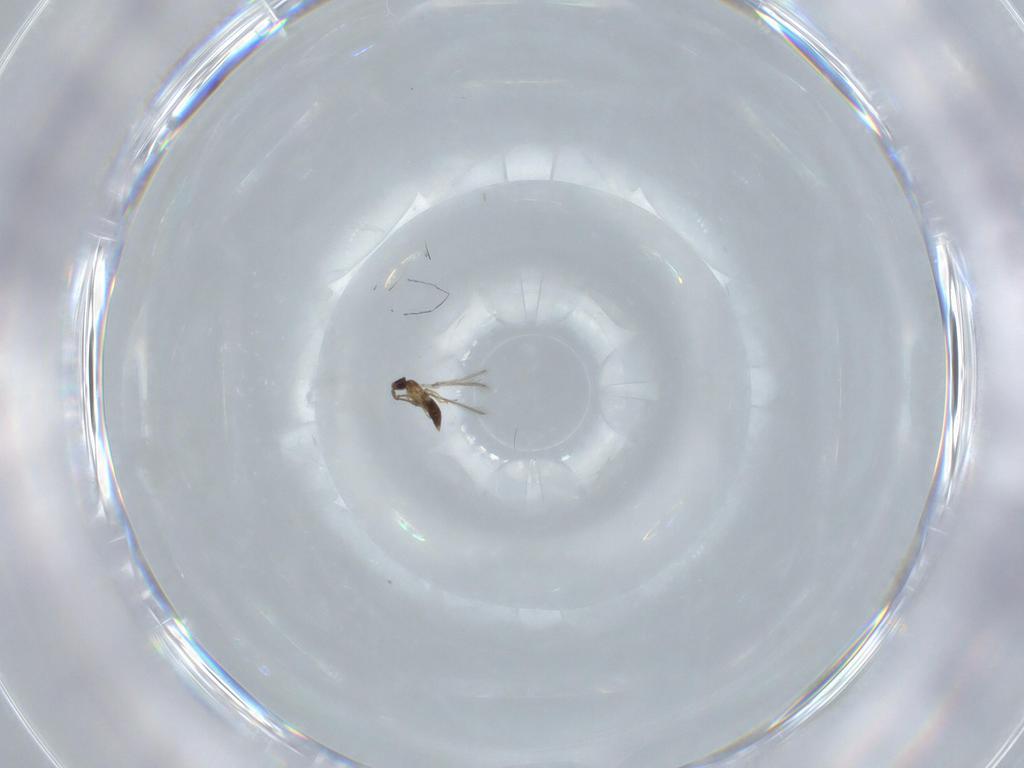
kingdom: Animalia
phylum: Arthropoda
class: Insecta
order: Hymenoptera
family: Mymaridae
